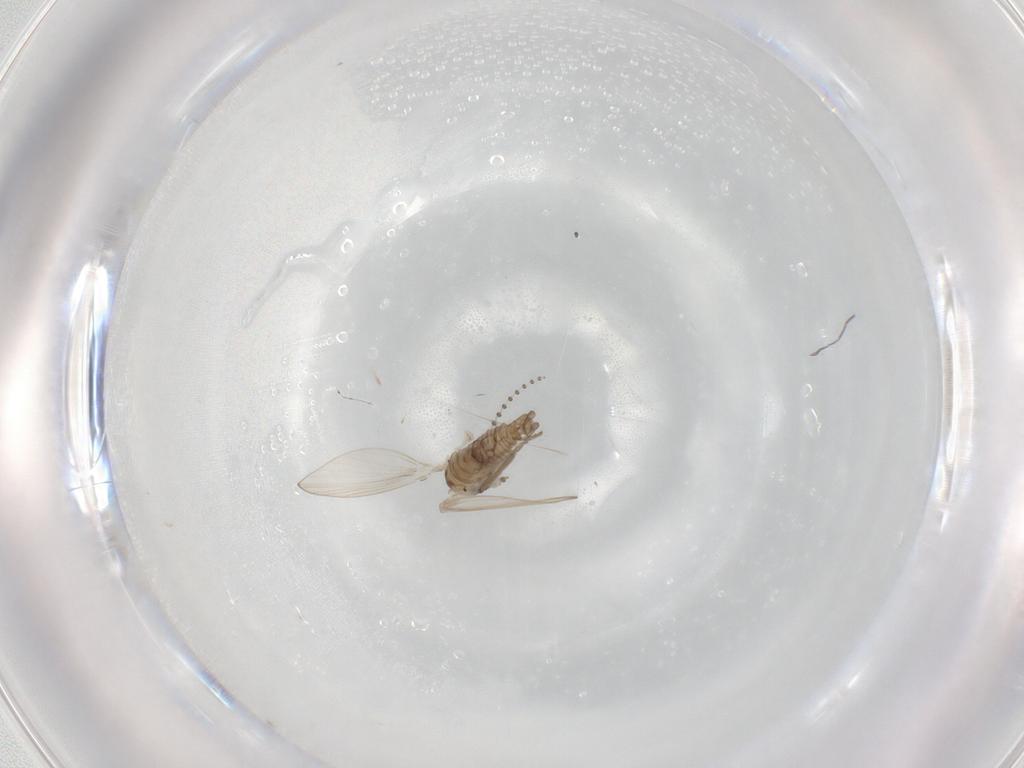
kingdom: Animalia
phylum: Arthropoda
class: Insecta
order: Diptera
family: Psychodidae
